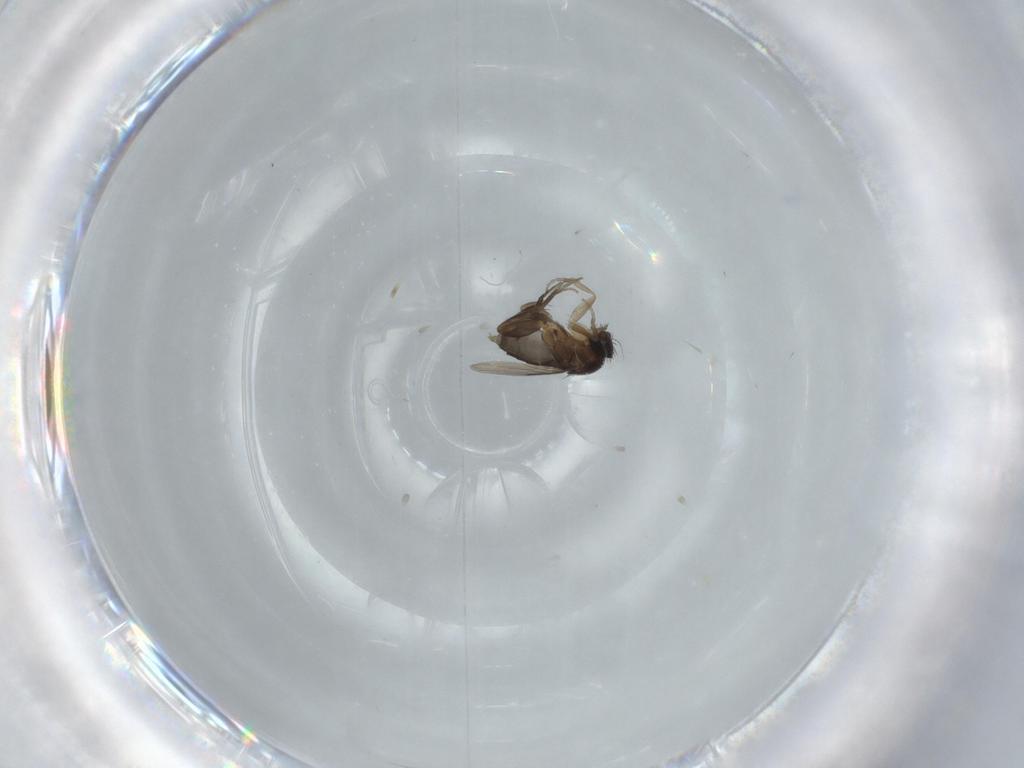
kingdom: Animalia
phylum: Arthropoda
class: Insecta
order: Diptera
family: Phoridae
